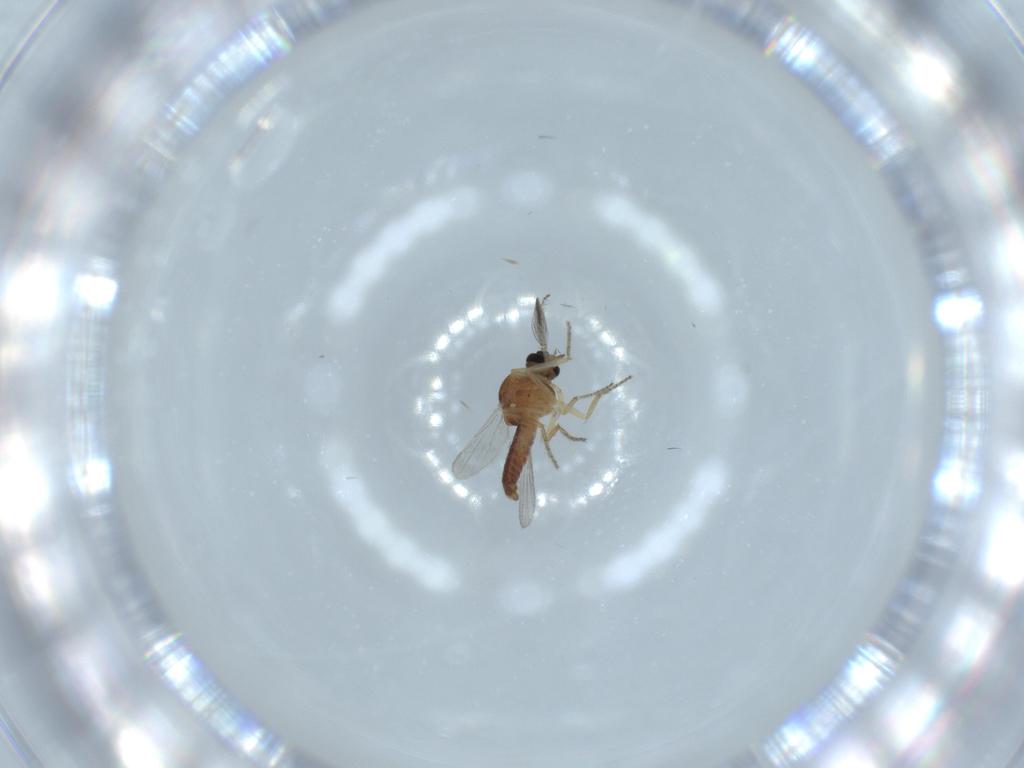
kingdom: Animalia
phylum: Arthropoda
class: Insecta
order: Diptera
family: Ceratopogonidae
